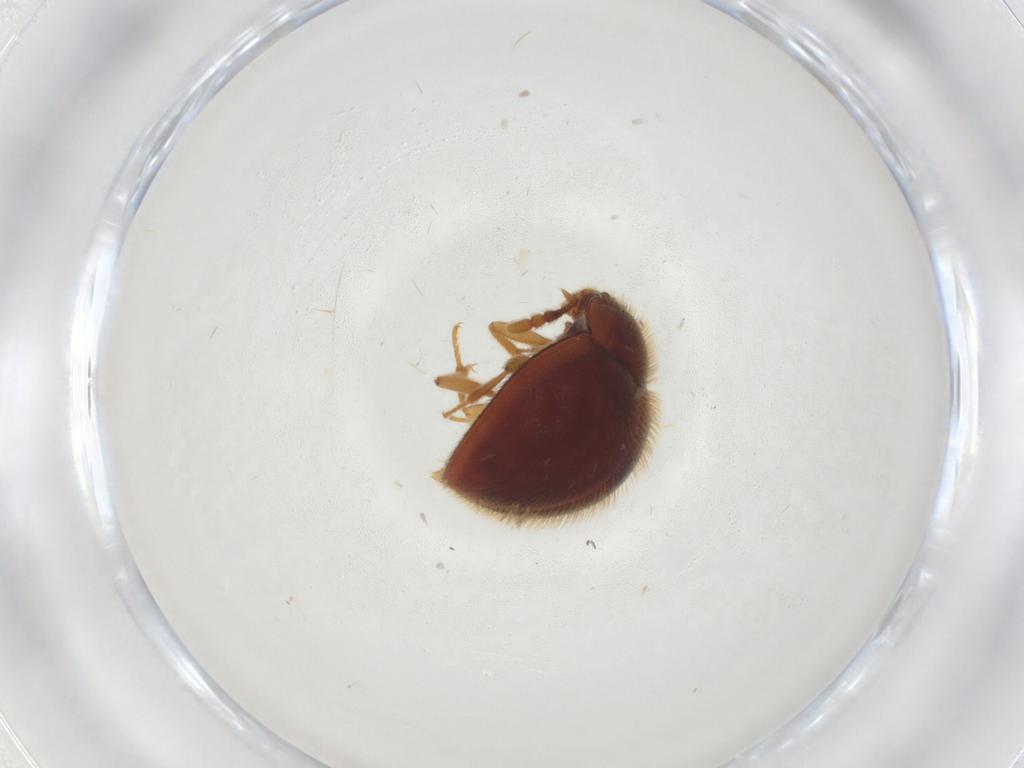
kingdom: Animalia
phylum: Arthropoda
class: Insecta
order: Coleoptera
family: Anamorphidae
